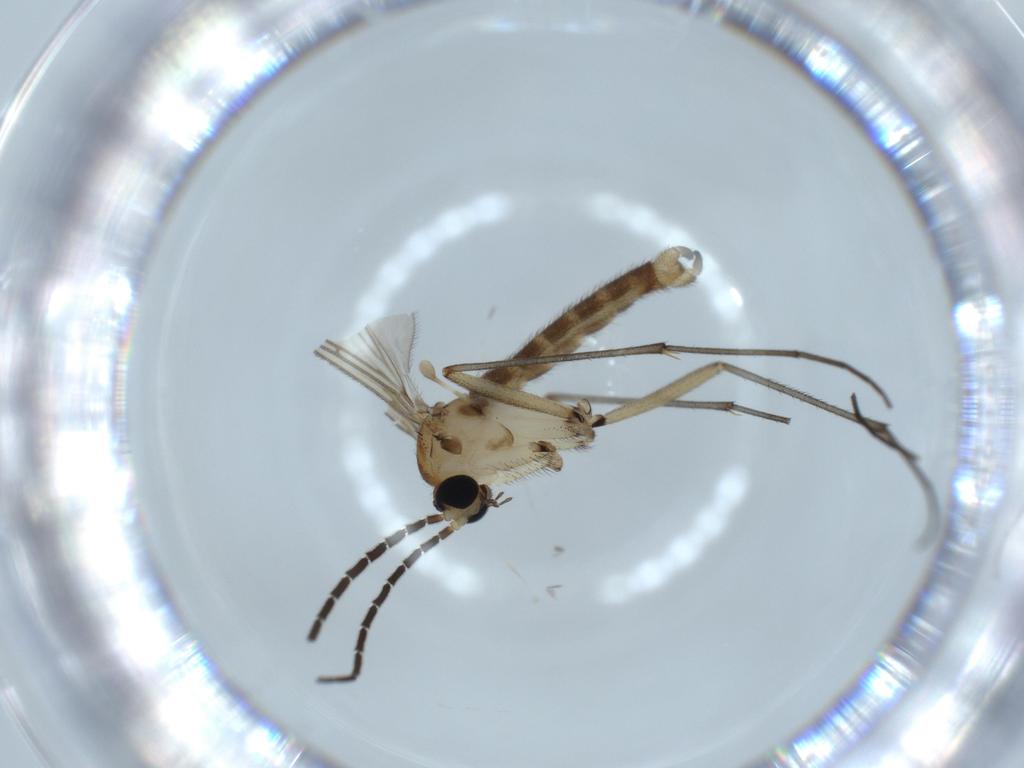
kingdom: Animalia
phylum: Arthropoda
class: Insecta
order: Diptera
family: Sciaridae
